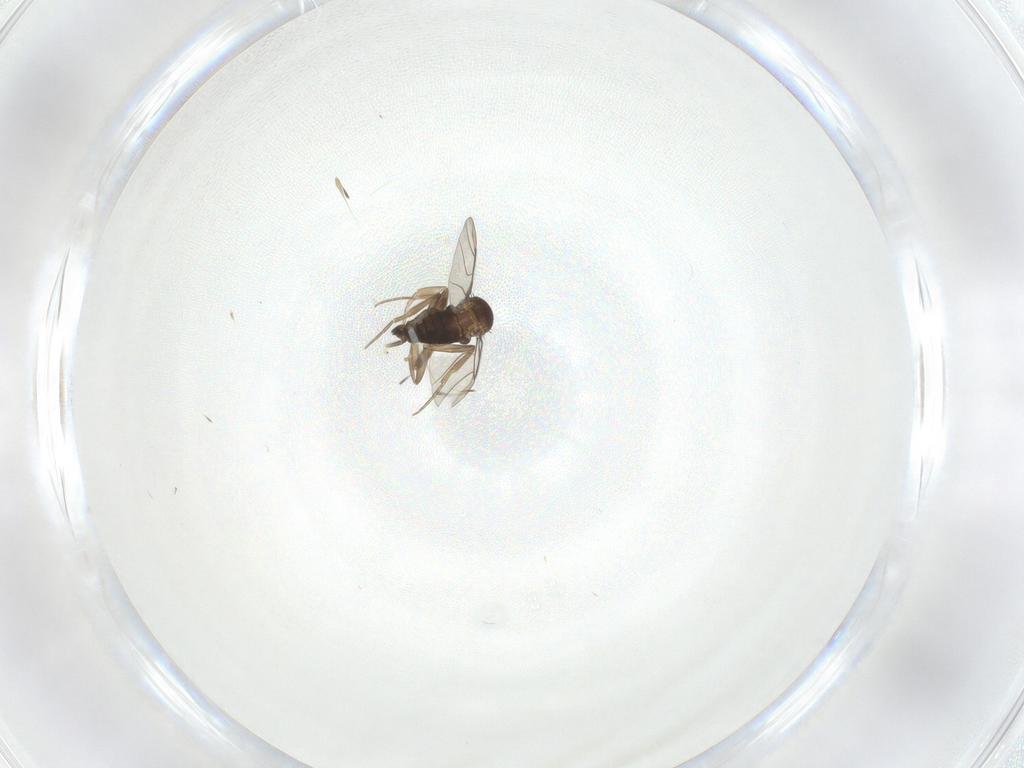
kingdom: Animalia
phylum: Arthropoda
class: Insecta
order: Diptera
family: Phoridae
